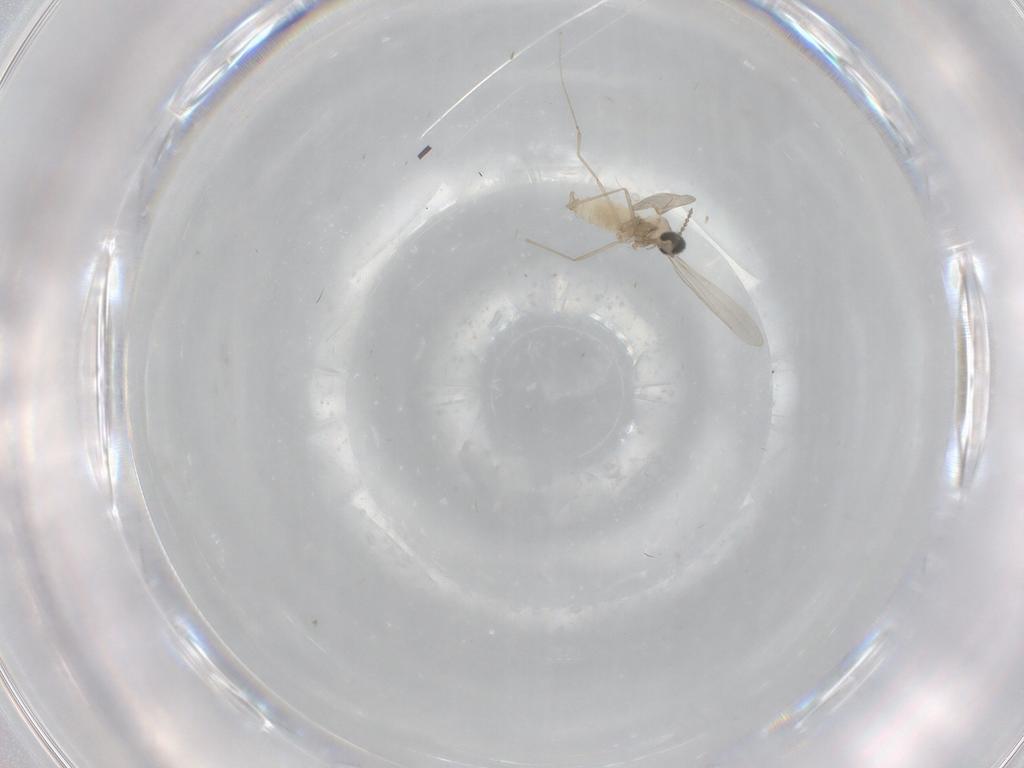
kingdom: Animalia
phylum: Arthropoda
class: Insecta
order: Diptera
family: Cecidomyiidae
